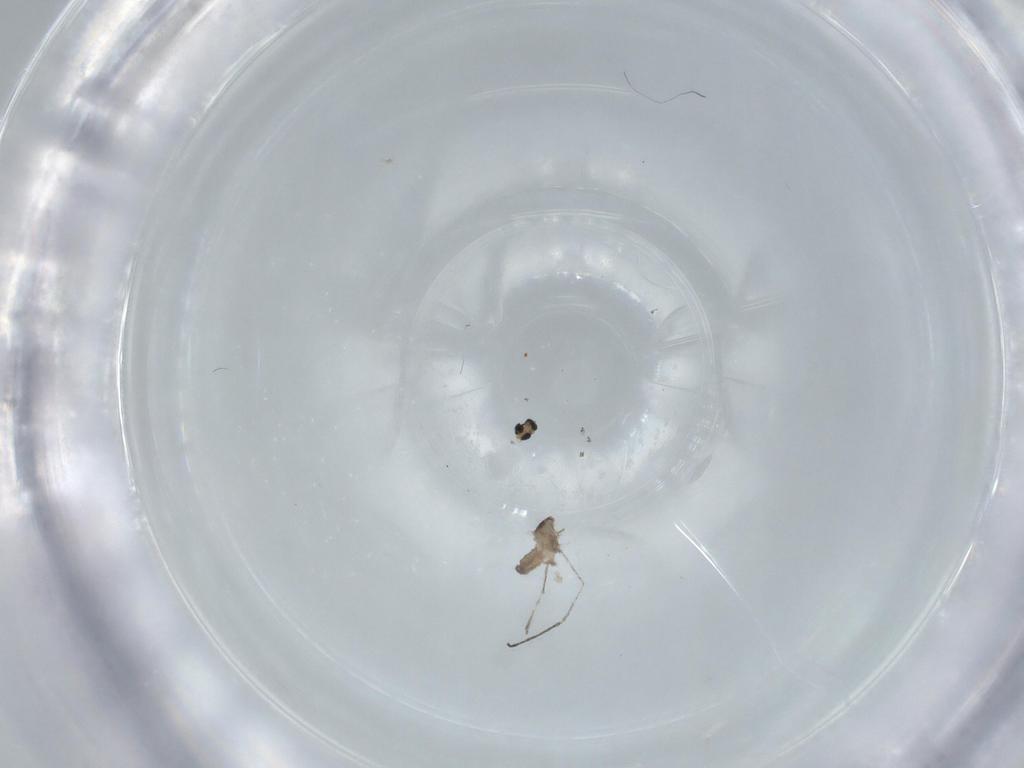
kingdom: Animalia
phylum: Arthropoda
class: Insecta
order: Diptera
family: Cecidomyiidae
